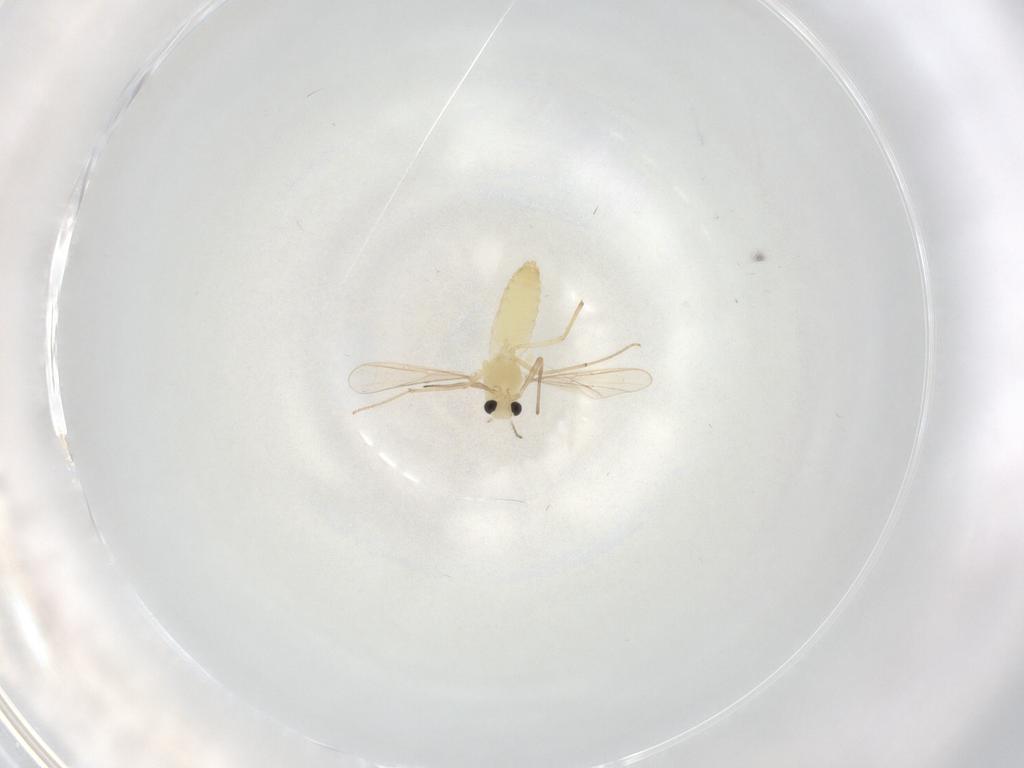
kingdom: Animalia
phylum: Arthropoda
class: Insecta
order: Diptera
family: Chironomidae
